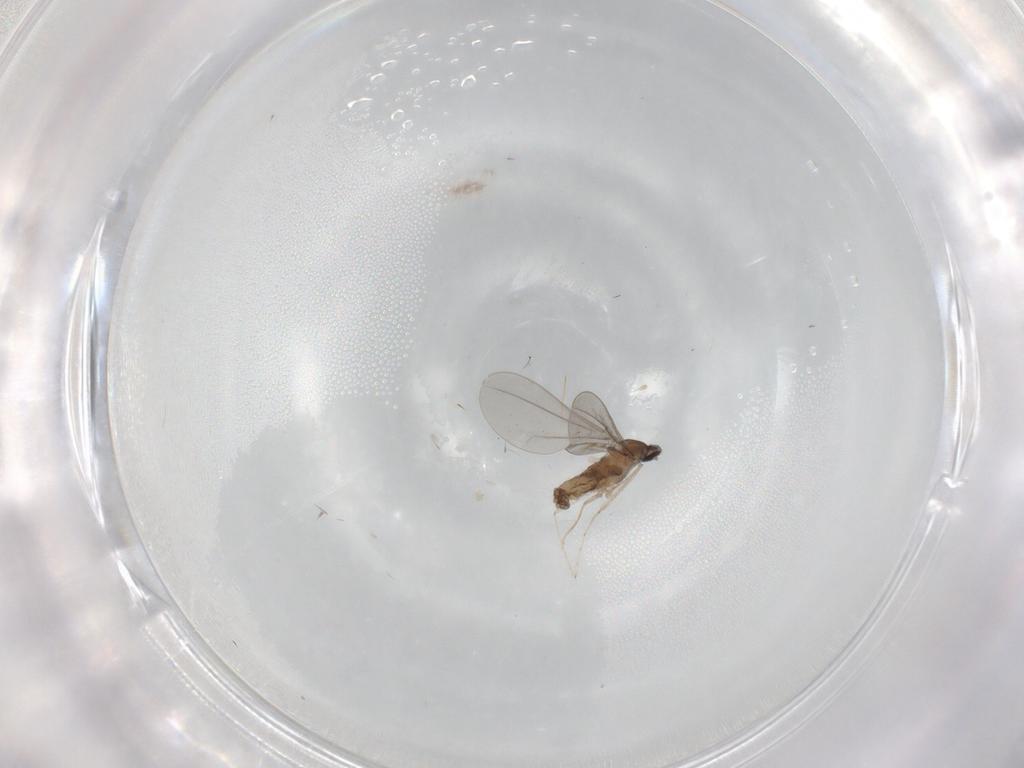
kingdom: Animalia
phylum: Arthropoda
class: Insecta
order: Diptera
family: Cecidomyiidae
